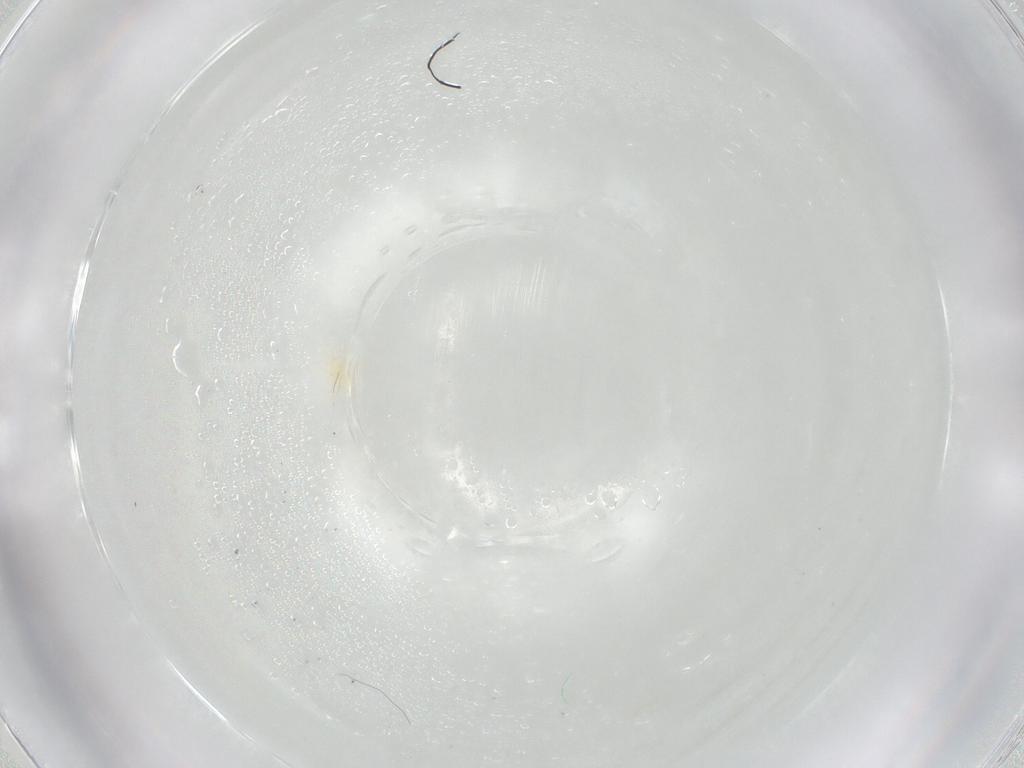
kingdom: Animalia
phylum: Arthropoda
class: Arachnida
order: Trombidiformes
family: Anystidae
